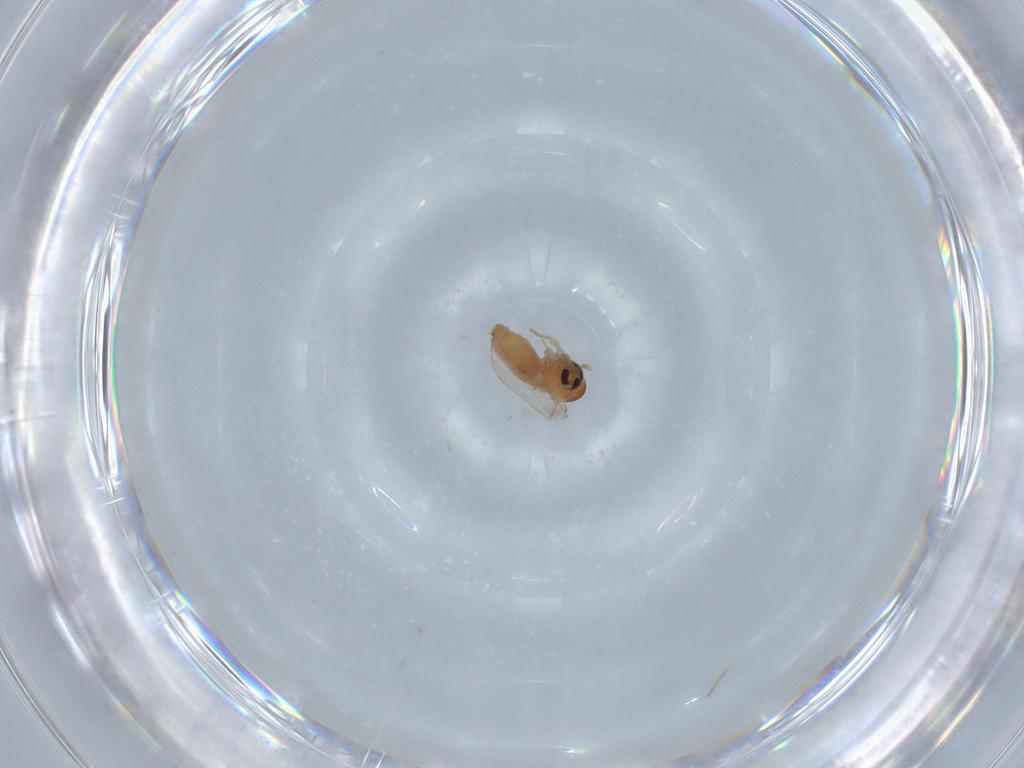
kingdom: Animalia
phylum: Arthropoda
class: Insecta
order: Diptera
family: Psychodidae
